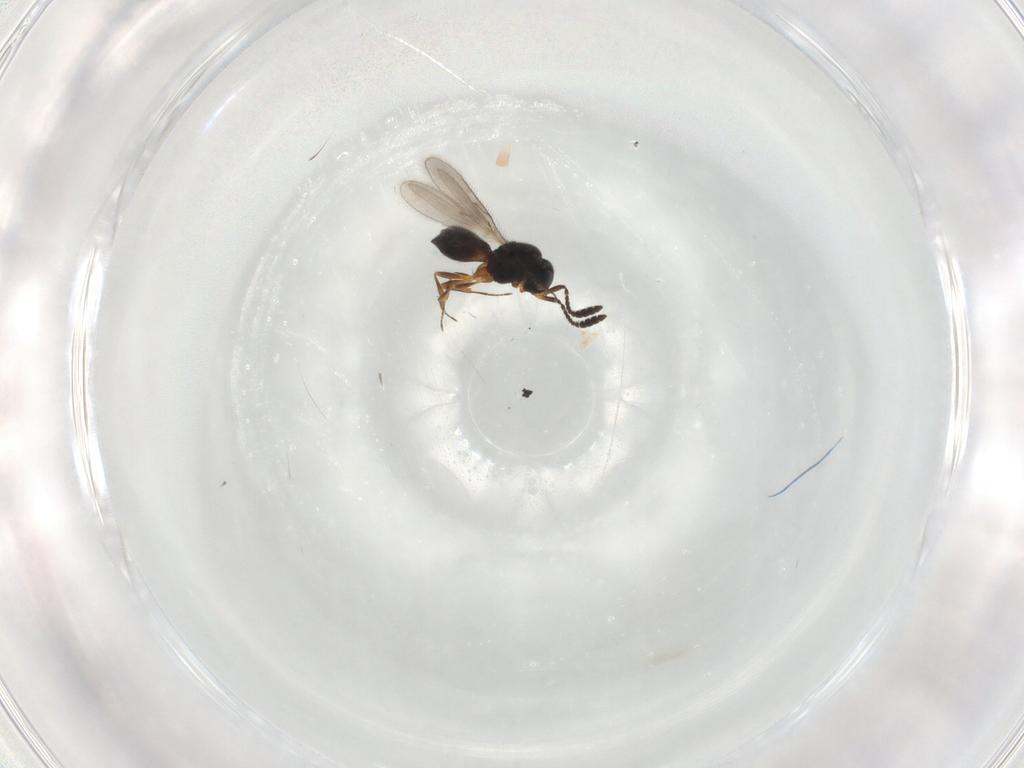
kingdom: Animalia
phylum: Arthropoda
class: Insecta
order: Hymenoptera
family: Scelionidae
